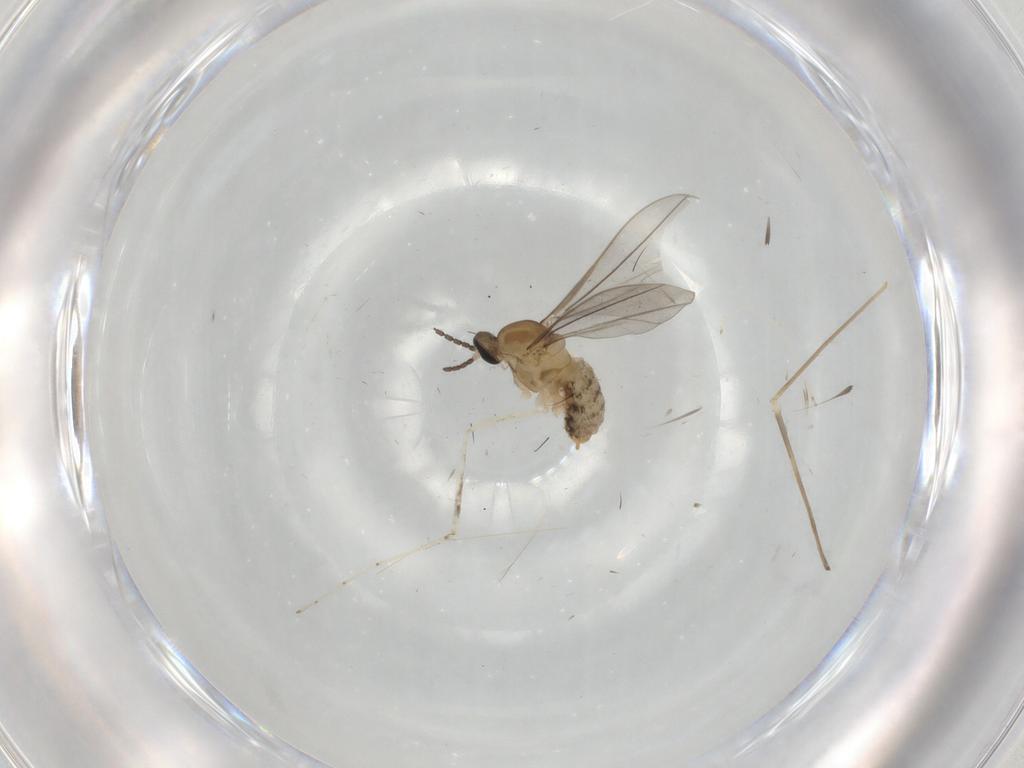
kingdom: Animalia
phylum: Arthropoda
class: Insecta
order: Diptera
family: Cecidomyiidae
